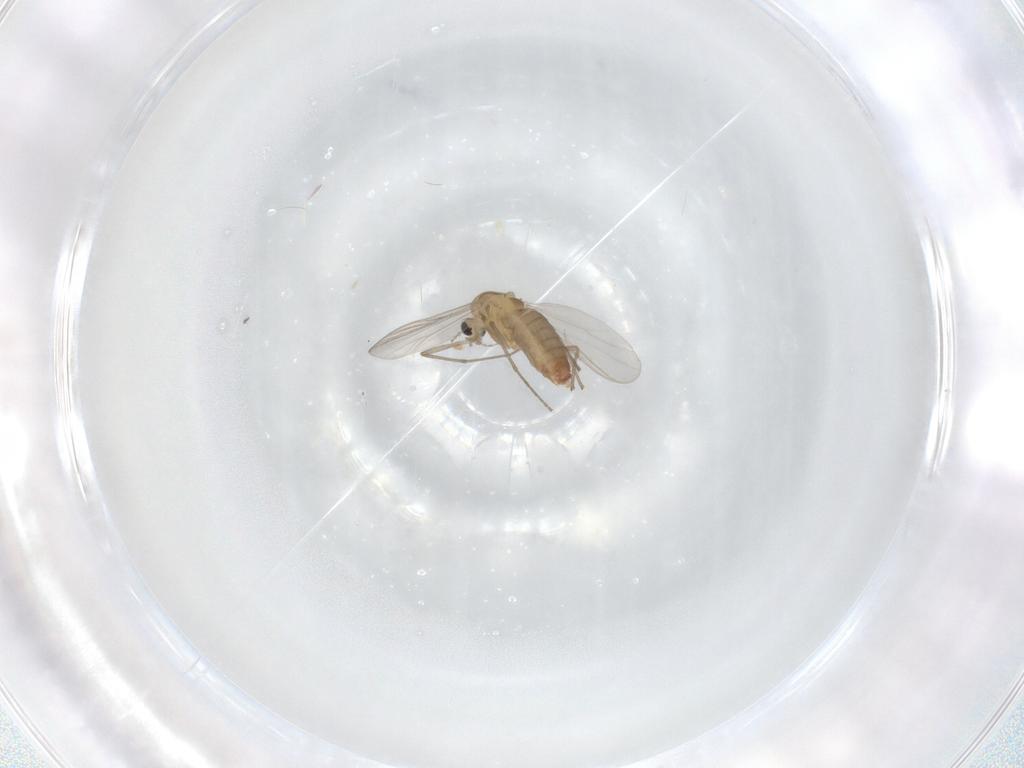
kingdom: Animalia
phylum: Arthropoda
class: Insecta
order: Diptera
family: Chironomidae
